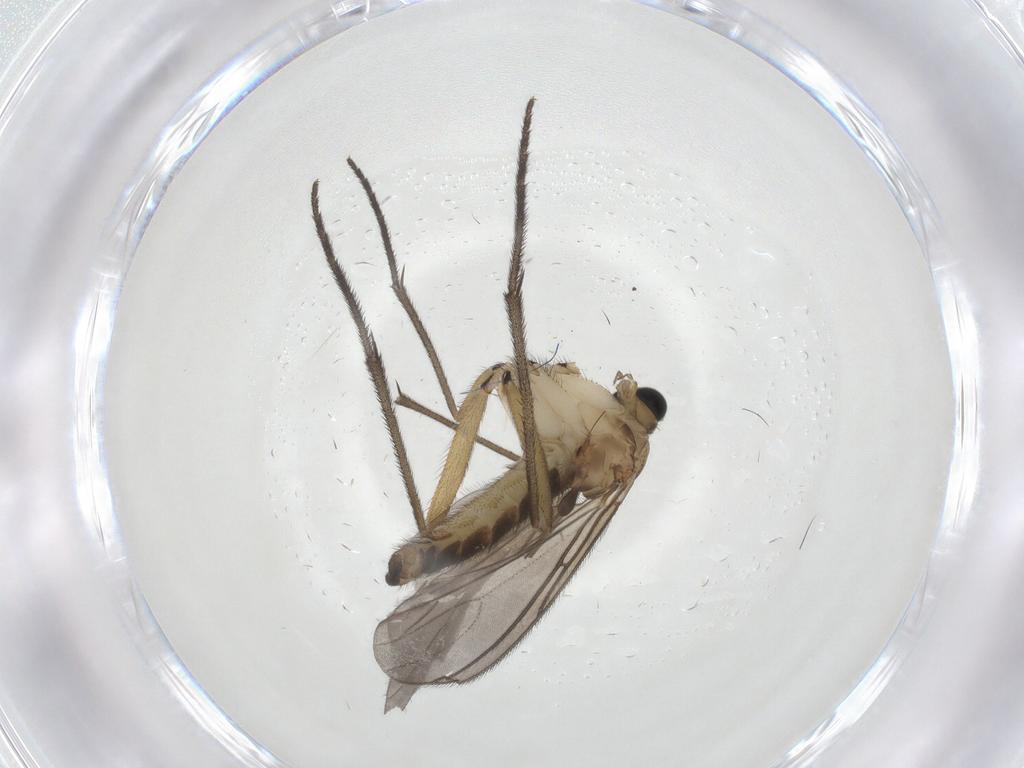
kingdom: Animalia
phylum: Arthropoda
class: Insecta
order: Diptera
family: Sciaridae
